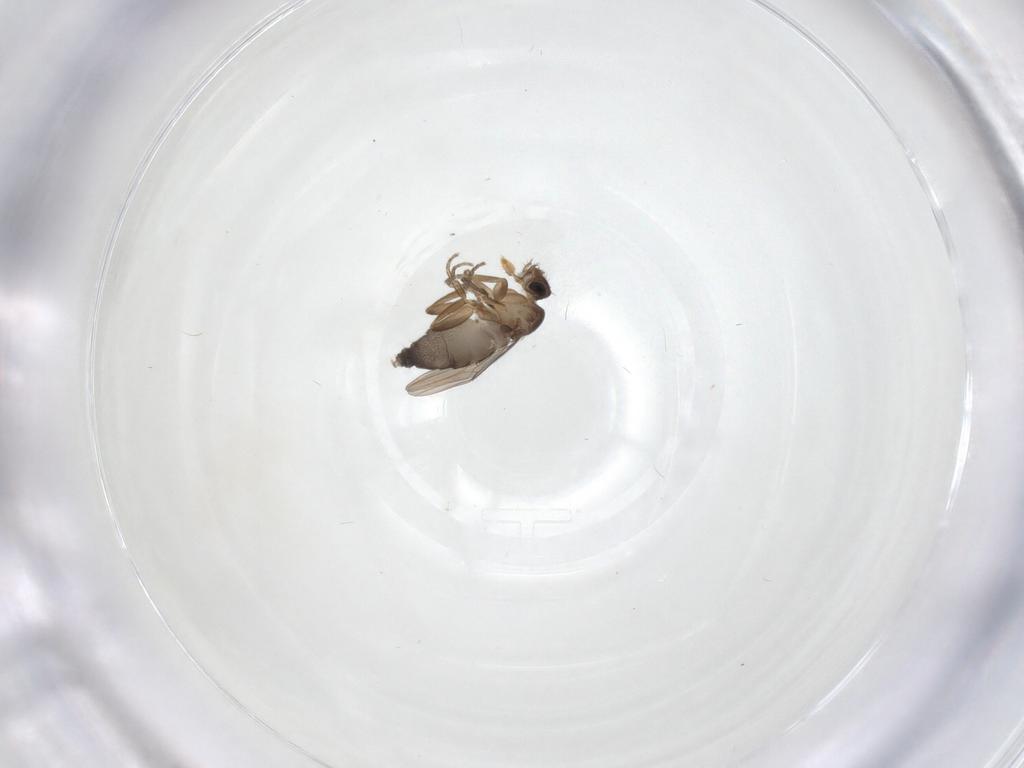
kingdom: Animalia
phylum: Arthropoda
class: Insecta
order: Diptera
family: Phoridae
